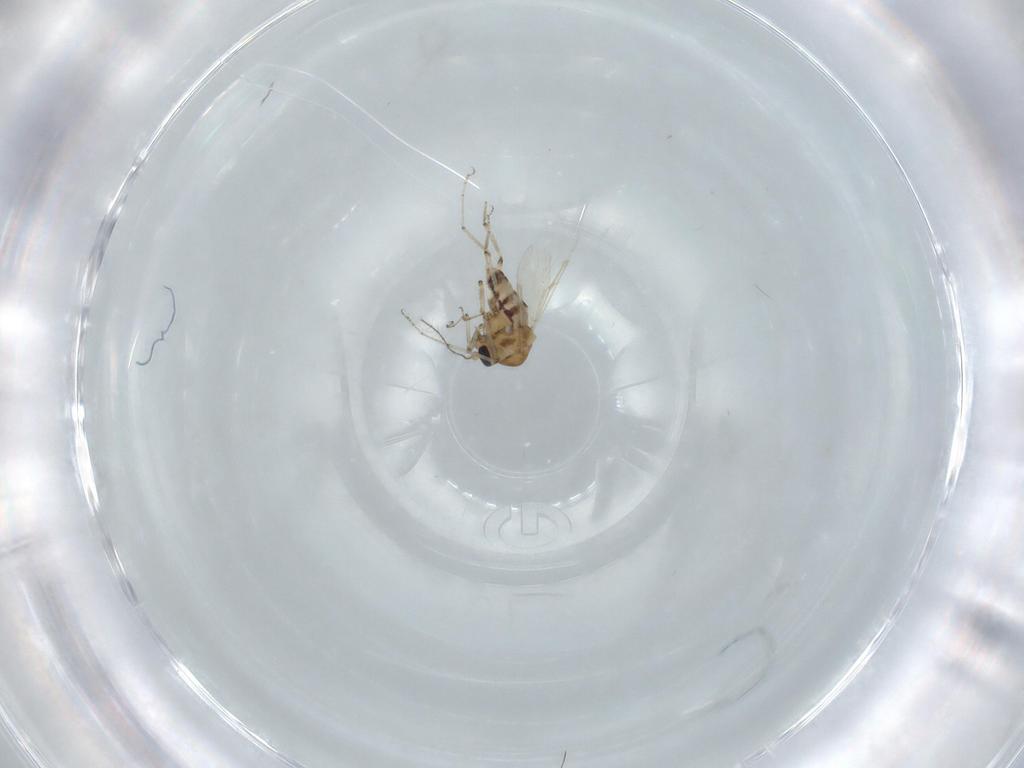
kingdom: Animalia
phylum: Arthropoda
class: Insecta
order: Diptera
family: Ceratopogonidae
